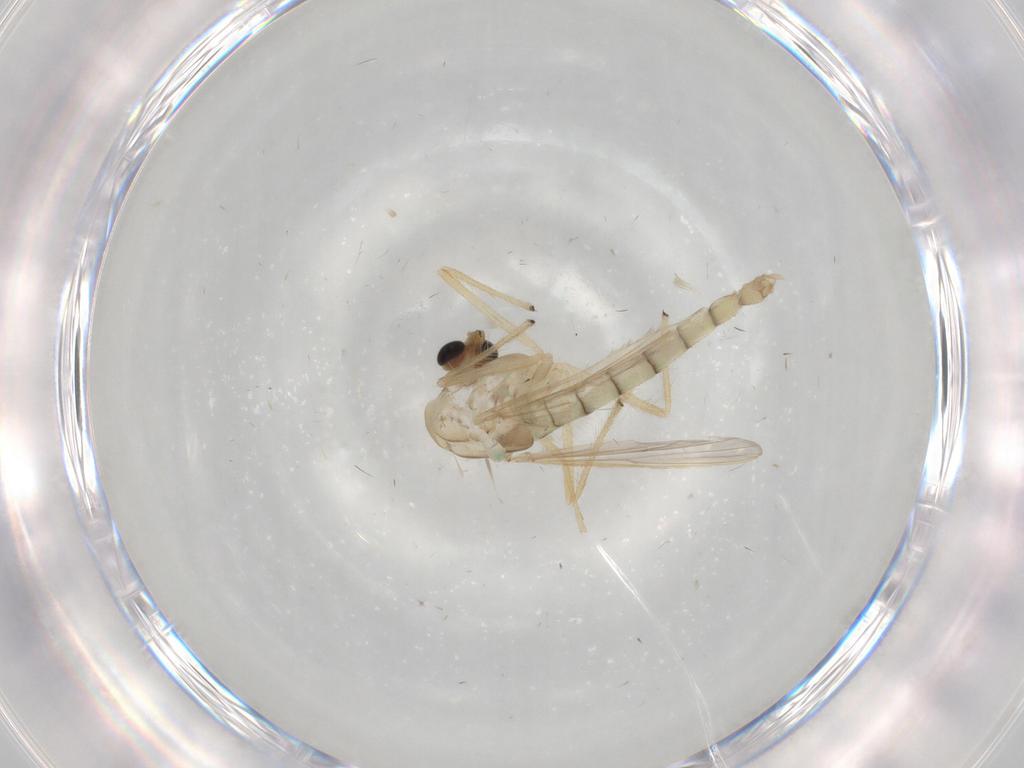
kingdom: Animalia
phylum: Arthropoda
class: Insecta
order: Diptera
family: Chironomidae
